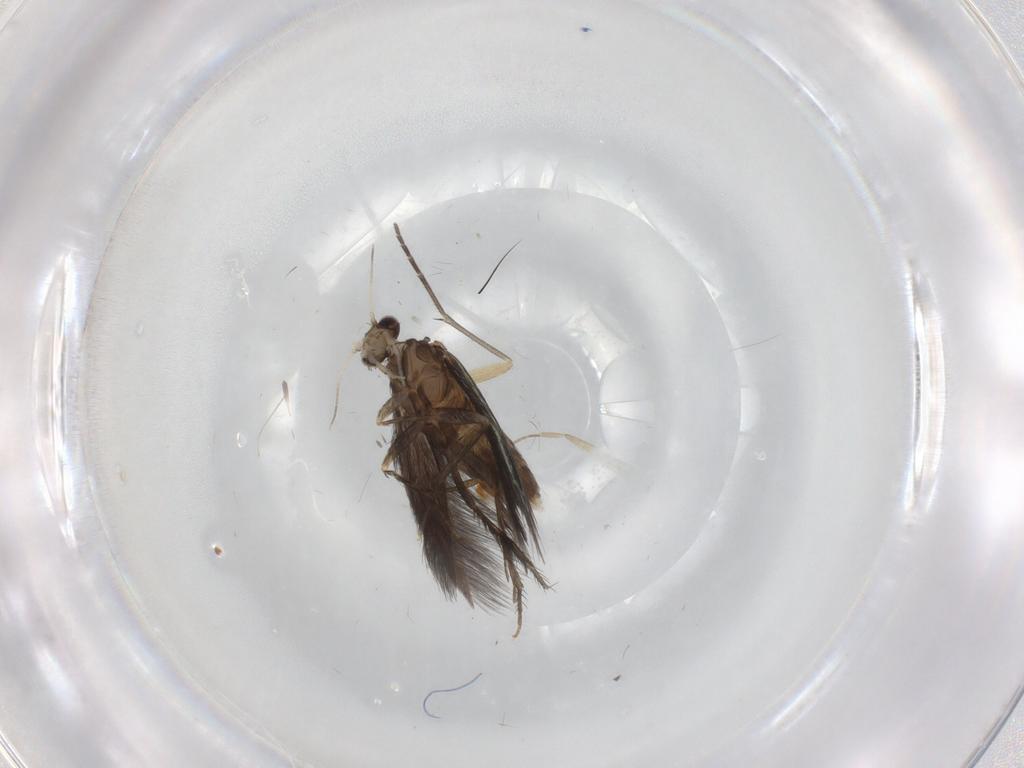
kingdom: Animalia
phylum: Arthropoda
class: Insecta
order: Trichoptera
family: Hydroptilidae
